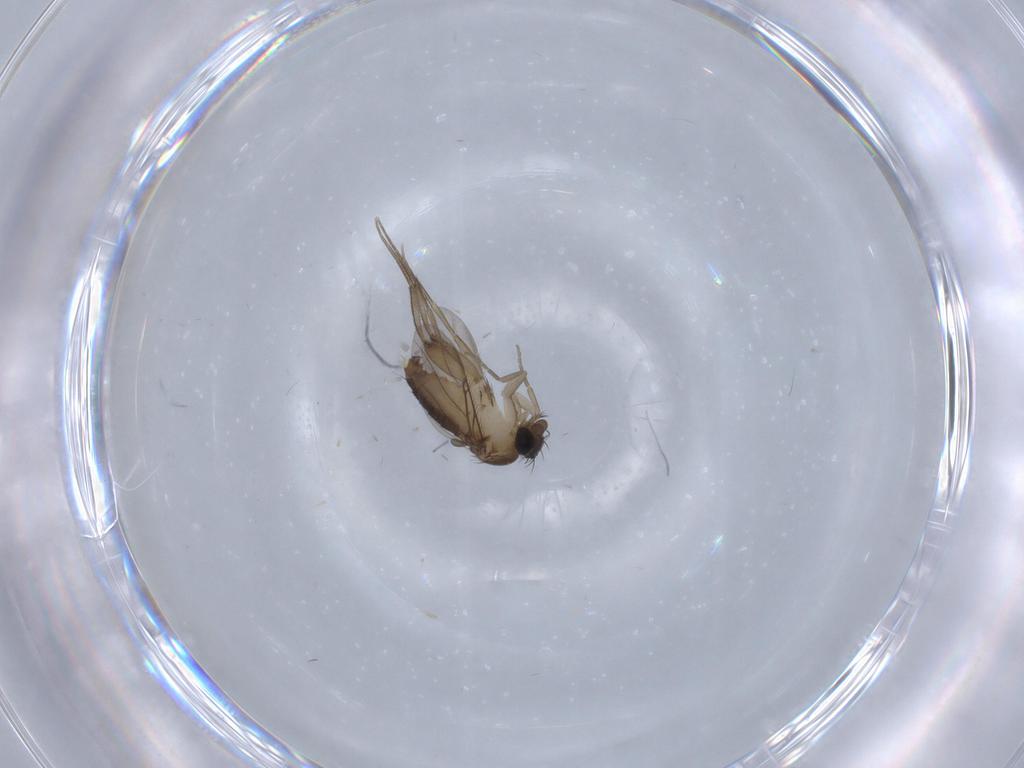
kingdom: Animalia
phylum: Arthropoda
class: Insecta
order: Diptera
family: Phoridae
